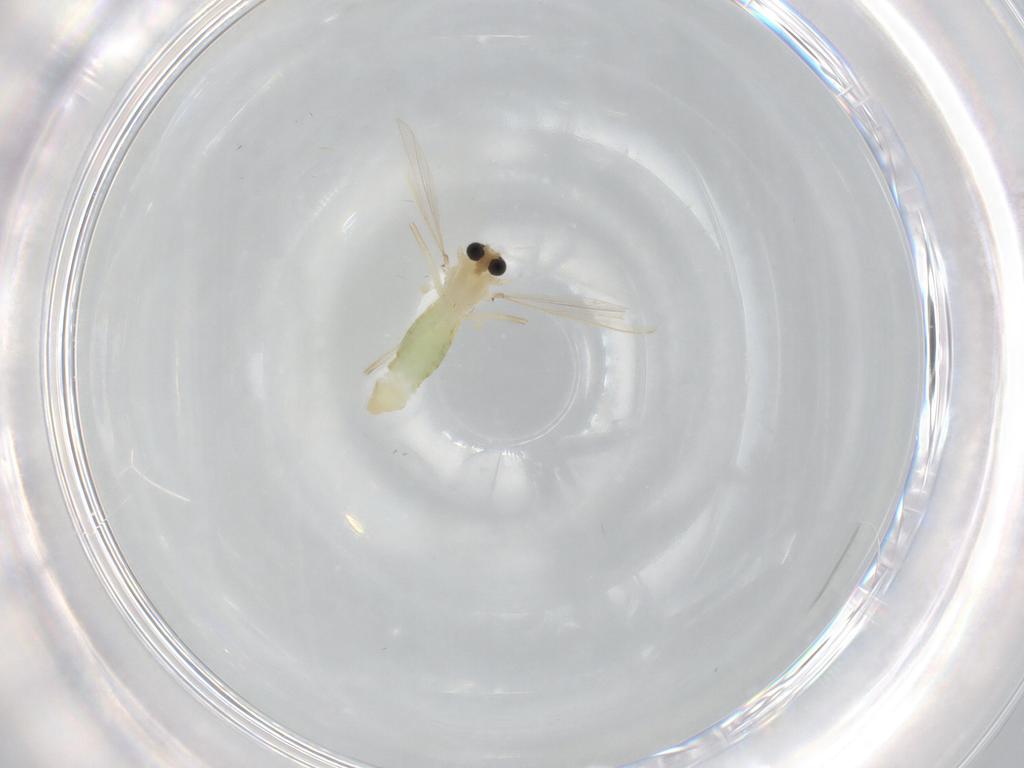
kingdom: Animalia
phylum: Arthropoda
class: Insecta
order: Diptera
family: Chironomidae
